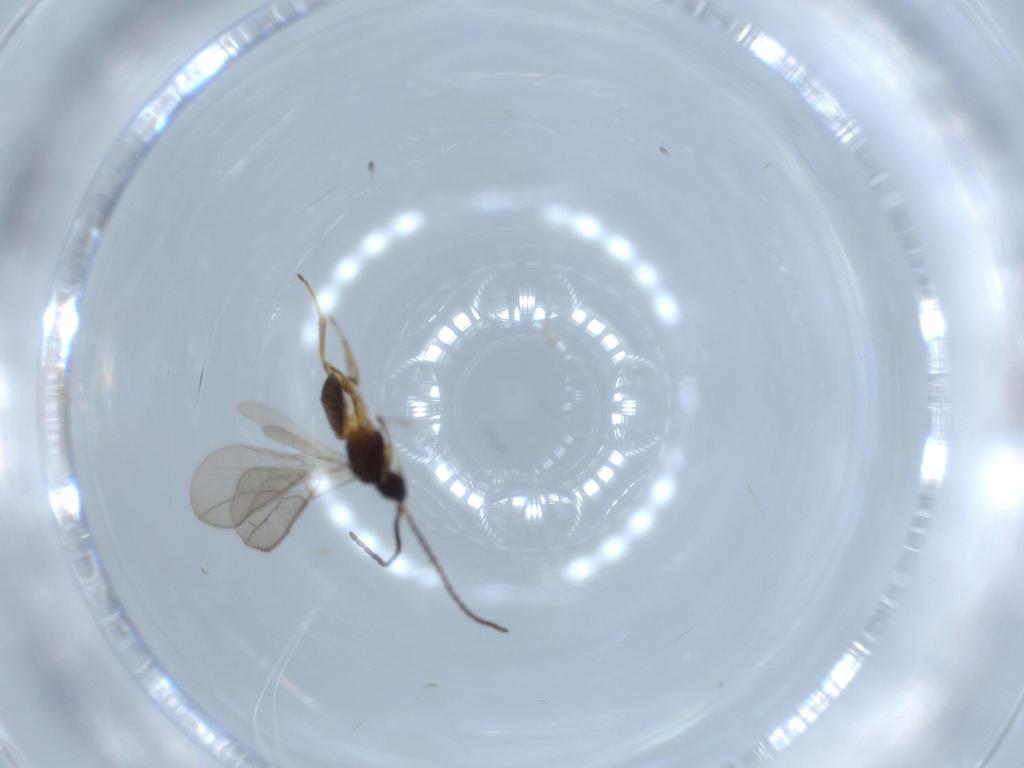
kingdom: Animalia
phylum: Arthropoda
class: Insecta
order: Hymenoptera
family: Braconidae
